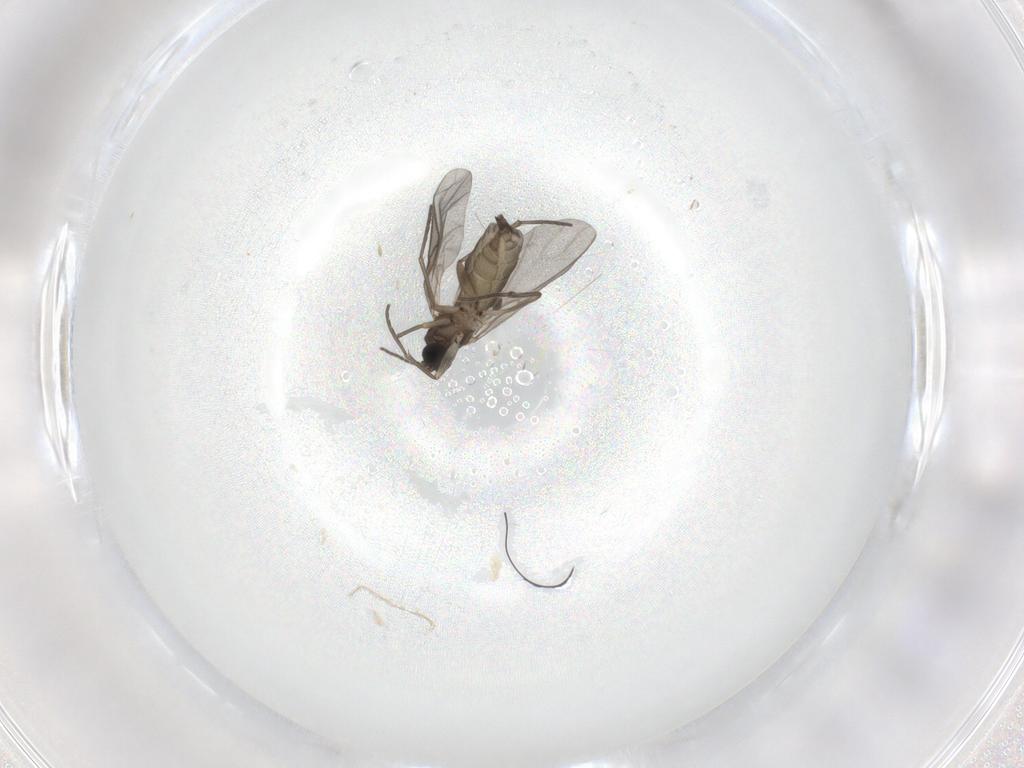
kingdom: Animalia
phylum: Arthropoda
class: Insecta
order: Diptera
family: Sciaridae
